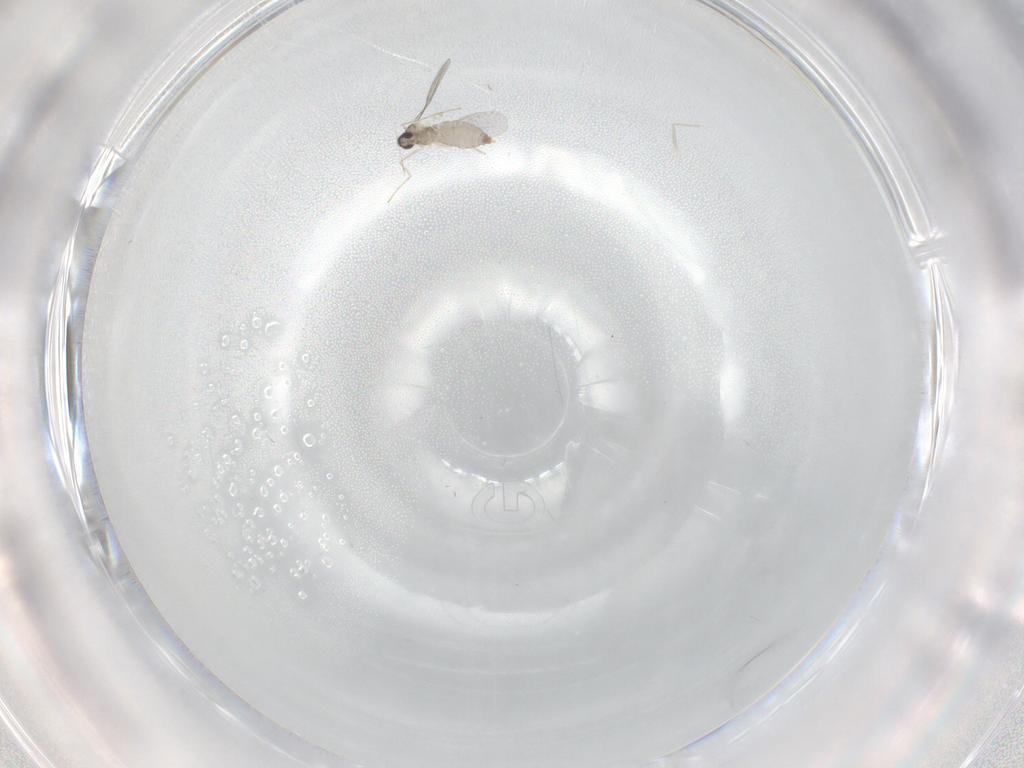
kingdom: Animalia
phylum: Arthropoda
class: Insecta
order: Diptera
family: Cecidomyiidae
